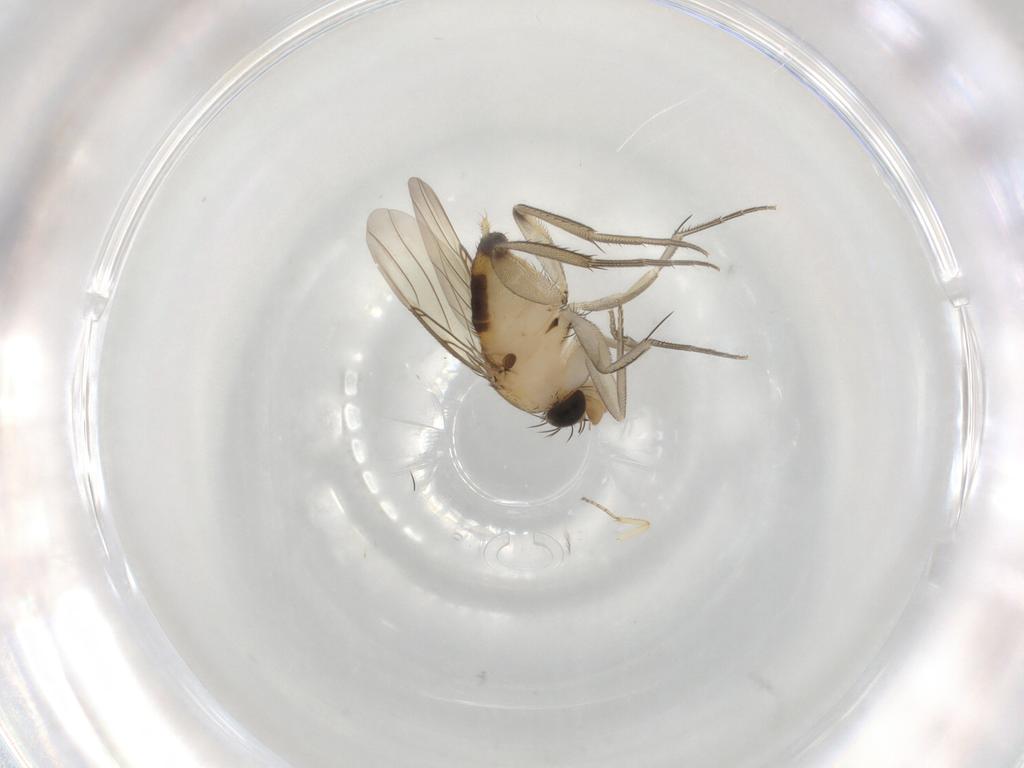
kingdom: Animalia
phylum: Arthropoda
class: Insecta
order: Diptera
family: Phoridae
